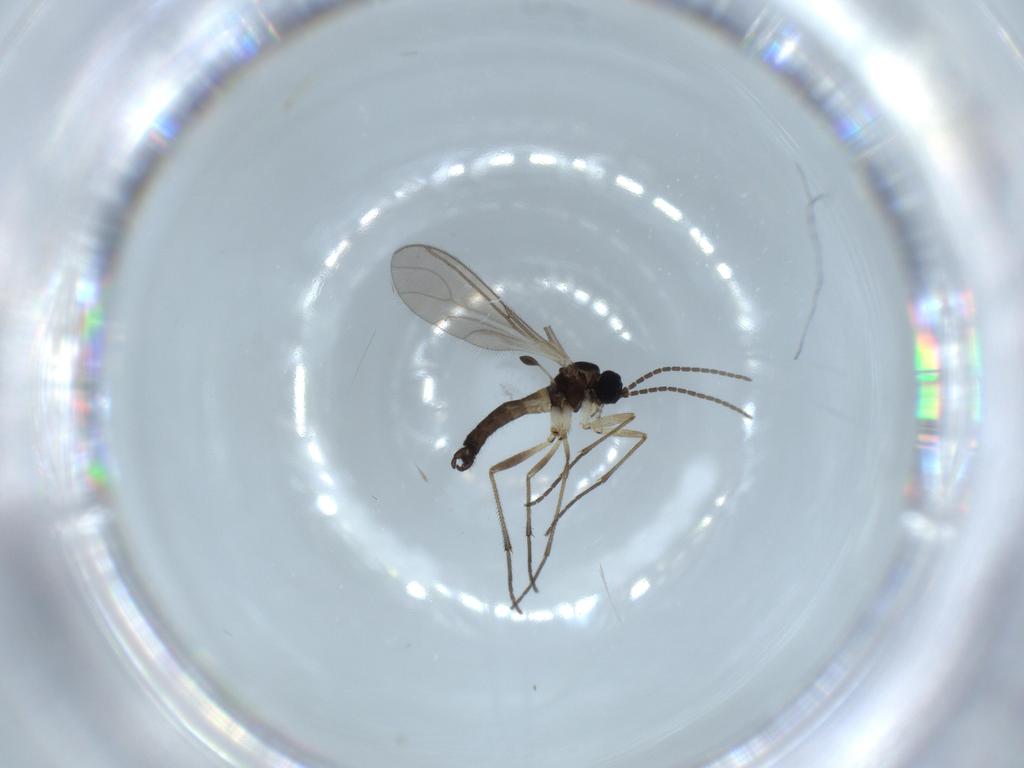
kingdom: Animalia
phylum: Arthropoda
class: Insecta
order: Diptera
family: Sciaridae
